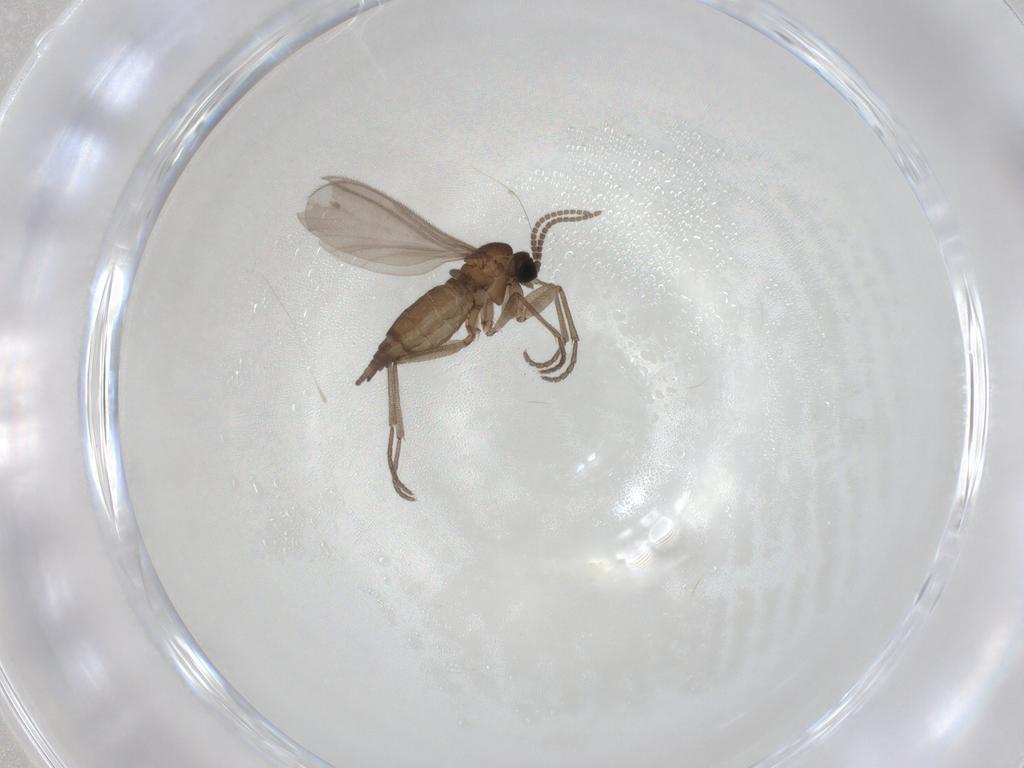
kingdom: Animalia
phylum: Arthropoda
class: Insecta
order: Diptera
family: Sciaridae
